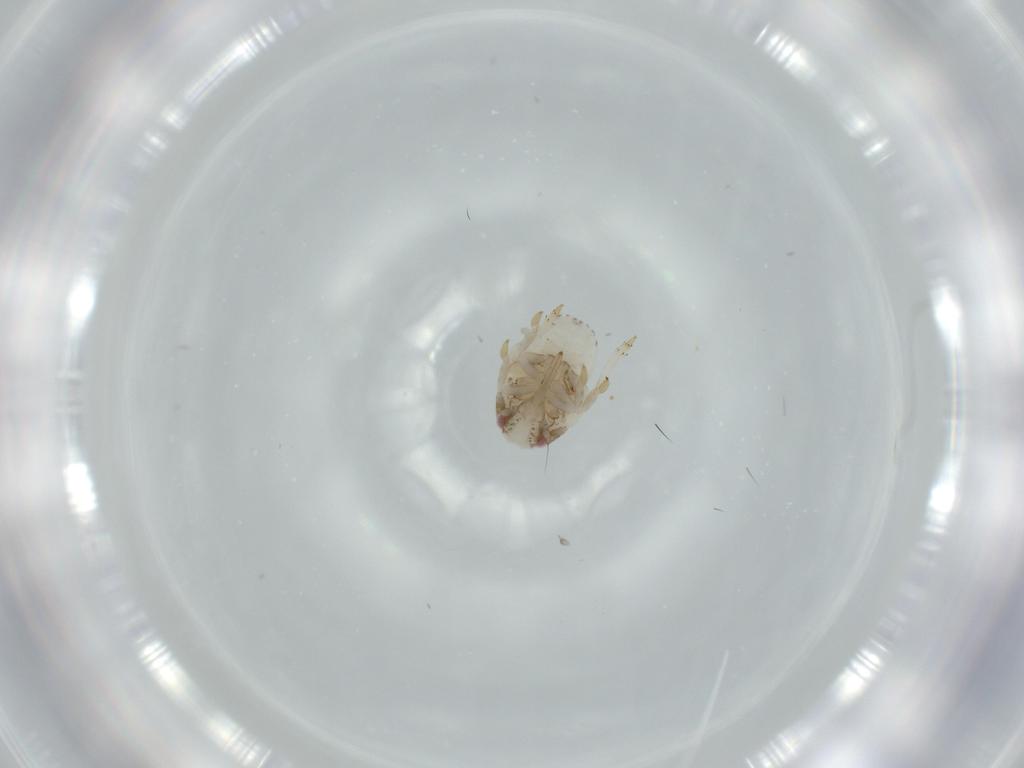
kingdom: Animalia
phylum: Arthropoda
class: Insecta
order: Hemiptera
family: Acanaloniidae
